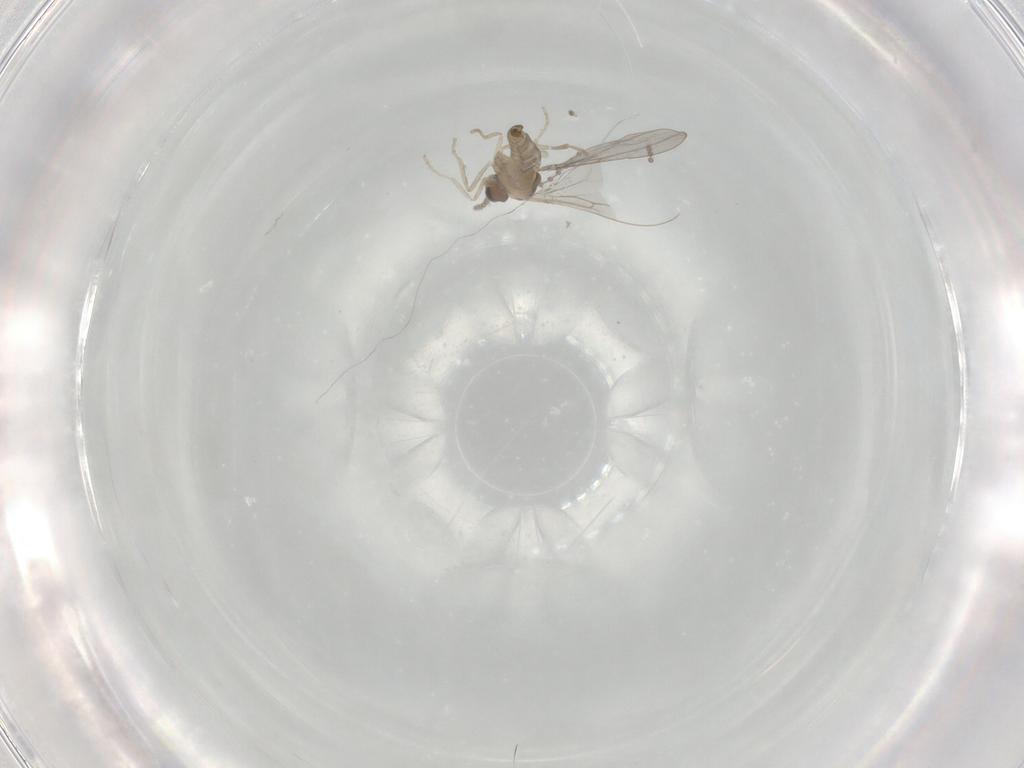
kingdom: Animalia
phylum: Arthropoda
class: Insecta
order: Diptera
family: Cecidomyiidae
